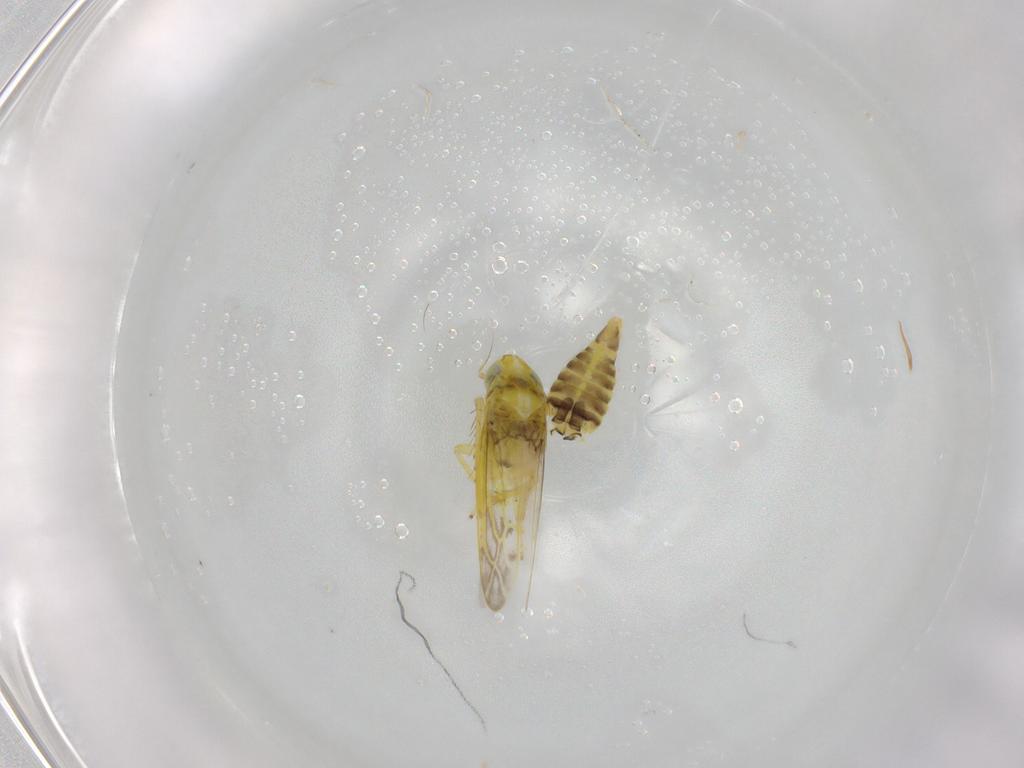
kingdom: Animalia
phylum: Arthropoda
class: Insecta
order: Hemiptera
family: Cicadellidae
